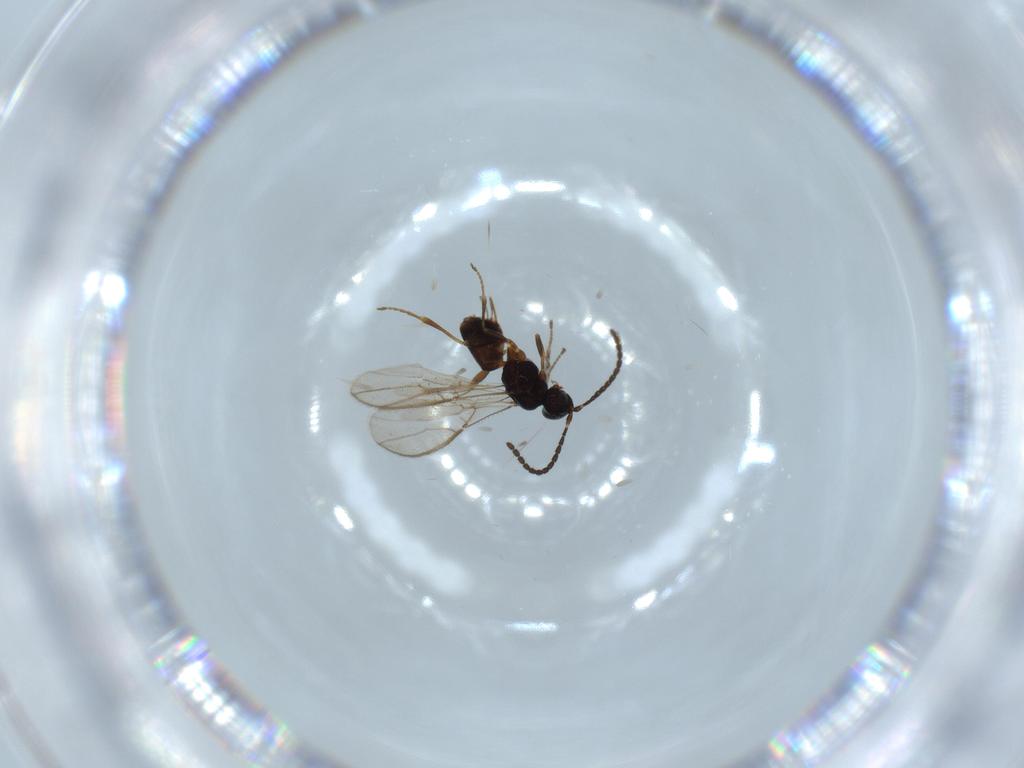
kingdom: Animalia
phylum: Arthropoda
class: Insecta
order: Hymenoptera
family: Braconidae
